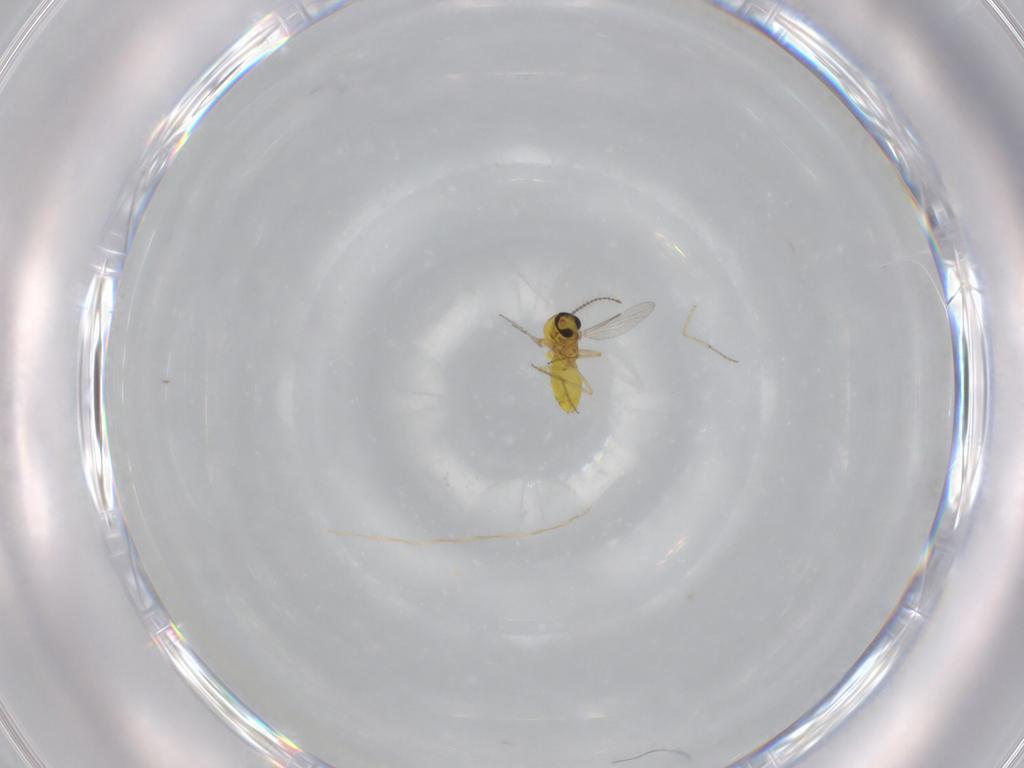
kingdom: Animalia
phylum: Arthropoda
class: Insecta
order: Diptera
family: Ceratopogonidae
